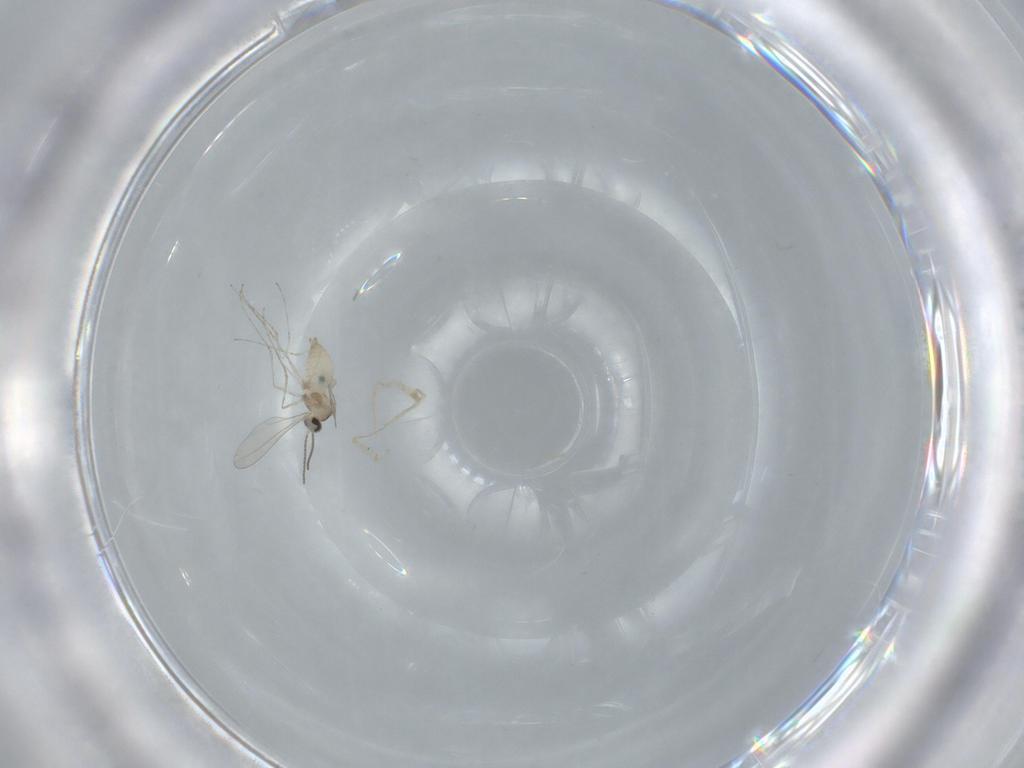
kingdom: Animalia
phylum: Arthropoda
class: Insecta
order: Diptera
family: Cecidomyiidae
